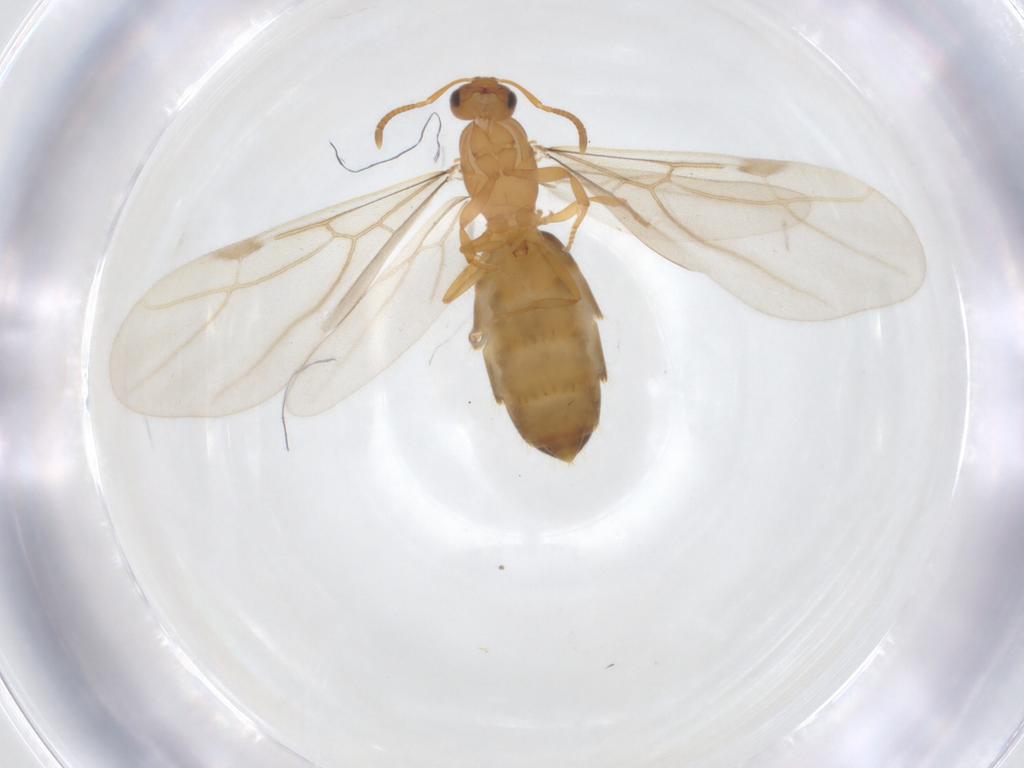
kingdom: Animalia
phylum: Arthropoda
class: Insecta
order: Hymenoptera
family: Formicidae
